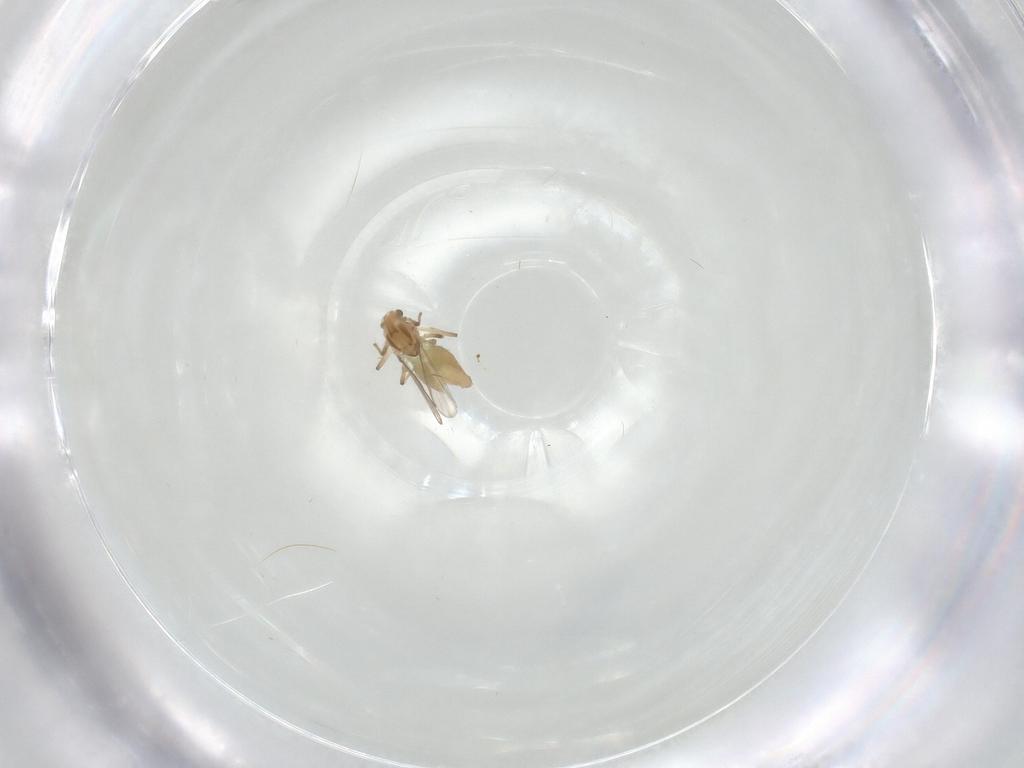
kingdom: Animalia
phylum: Arthropoda
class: Insecta
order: Diptera
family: Chironomidae
